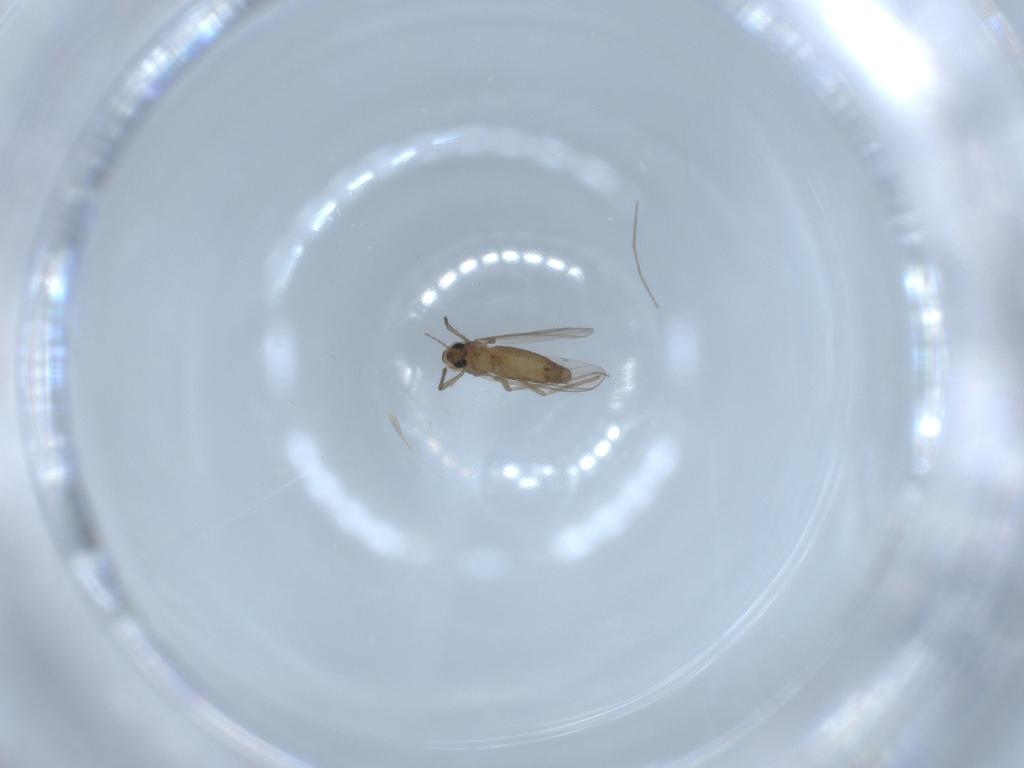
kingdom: Animalia
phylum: Arthropoda
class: Insecta
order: Diptera
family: Chironomidae
